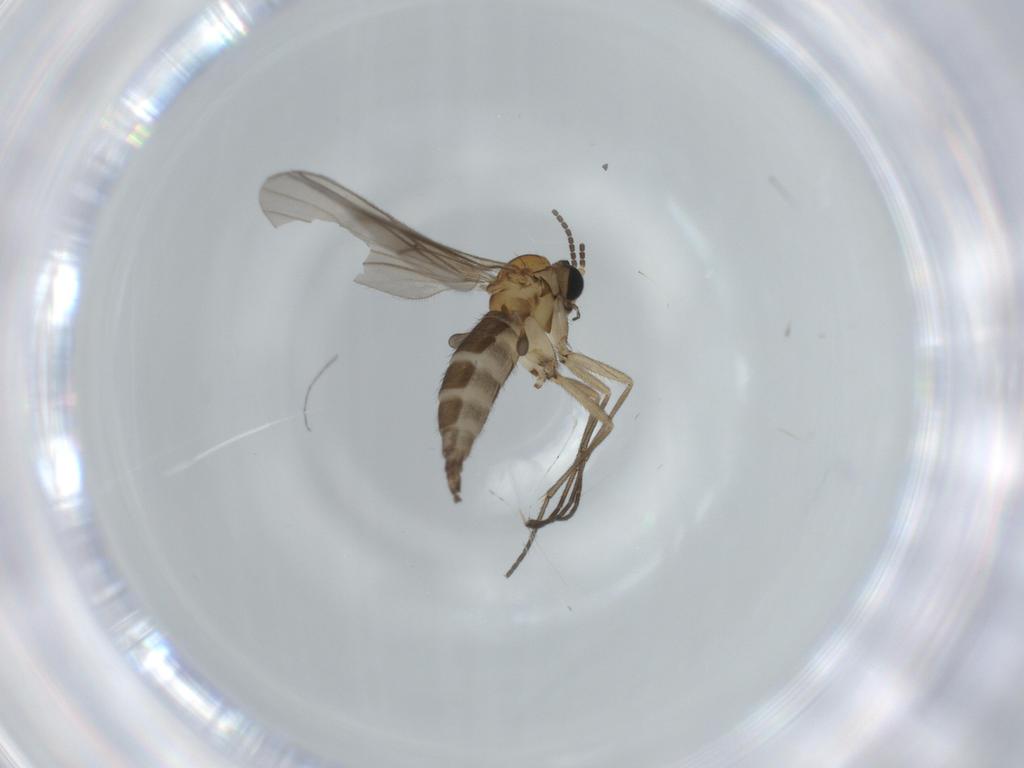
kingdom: Animalia
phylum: Arthropoda
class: Insecta
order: Diptera
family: Sciaridae
